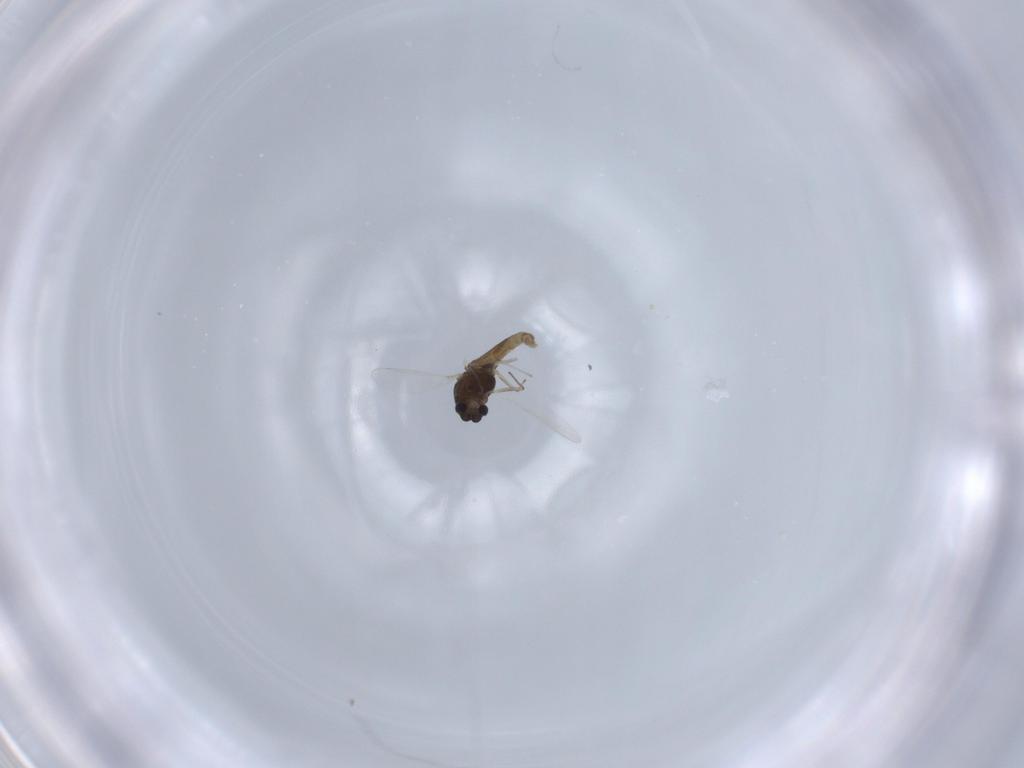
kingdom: Animalia
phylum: Arthropoda
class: Insecta
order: Diptera
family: Chironomidae
